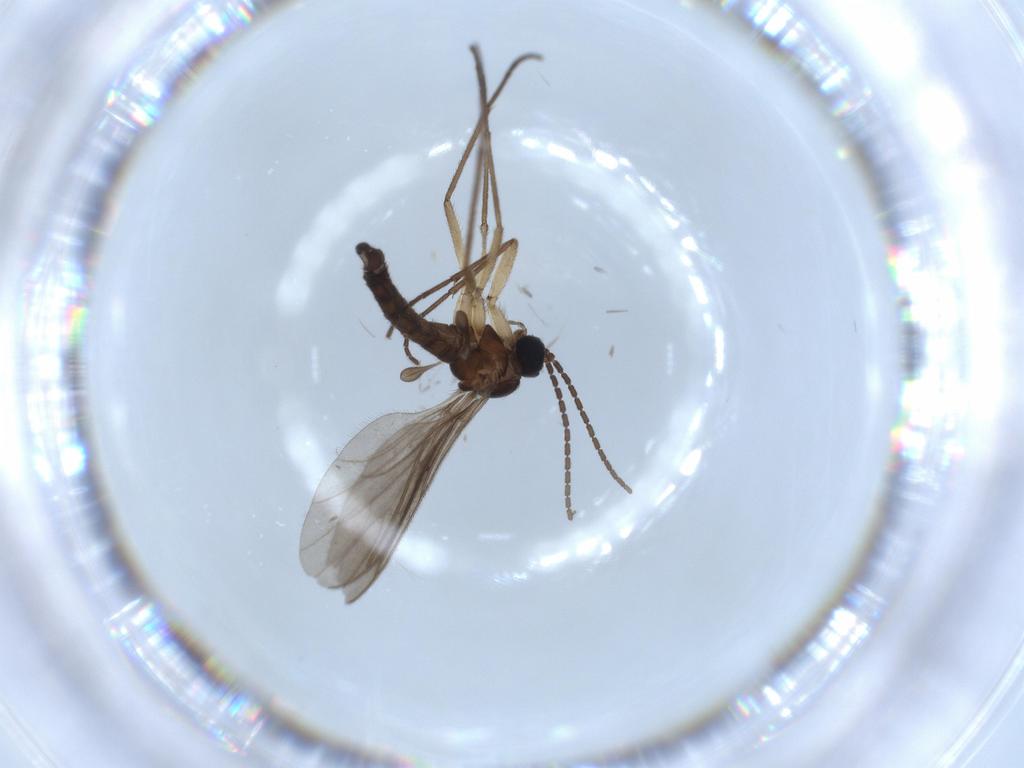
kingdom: Animalia
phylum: Arthropoda
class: Insecta
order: Diptera
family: Sciaridae
